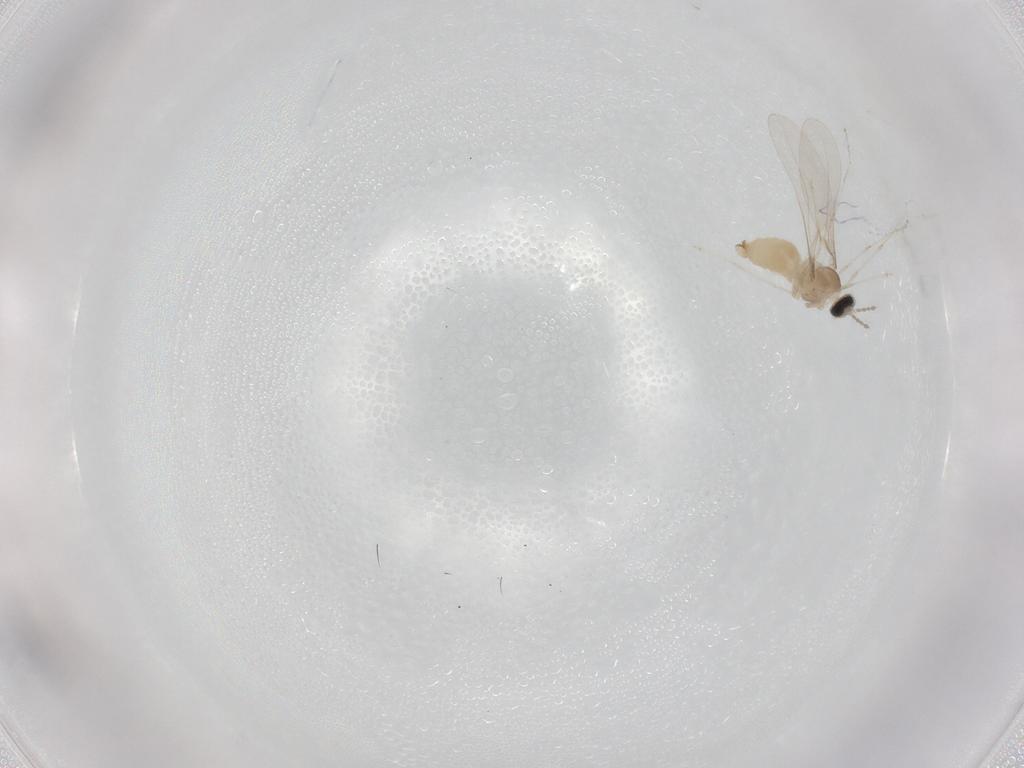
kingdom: Animalia
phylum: Arthropoda
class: Insecta
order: Diptera
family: Cecidomyiidae
